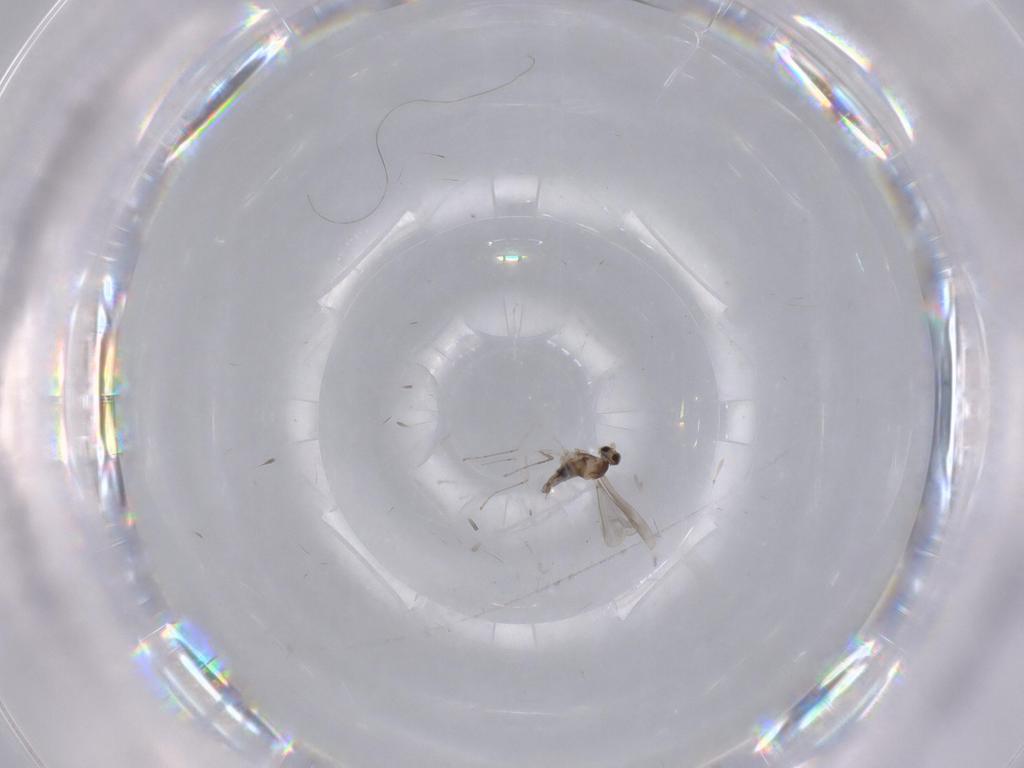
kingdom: Animalia
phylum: Arthropoda
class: Insecta
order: Diptera
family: Cecidomyiidae
